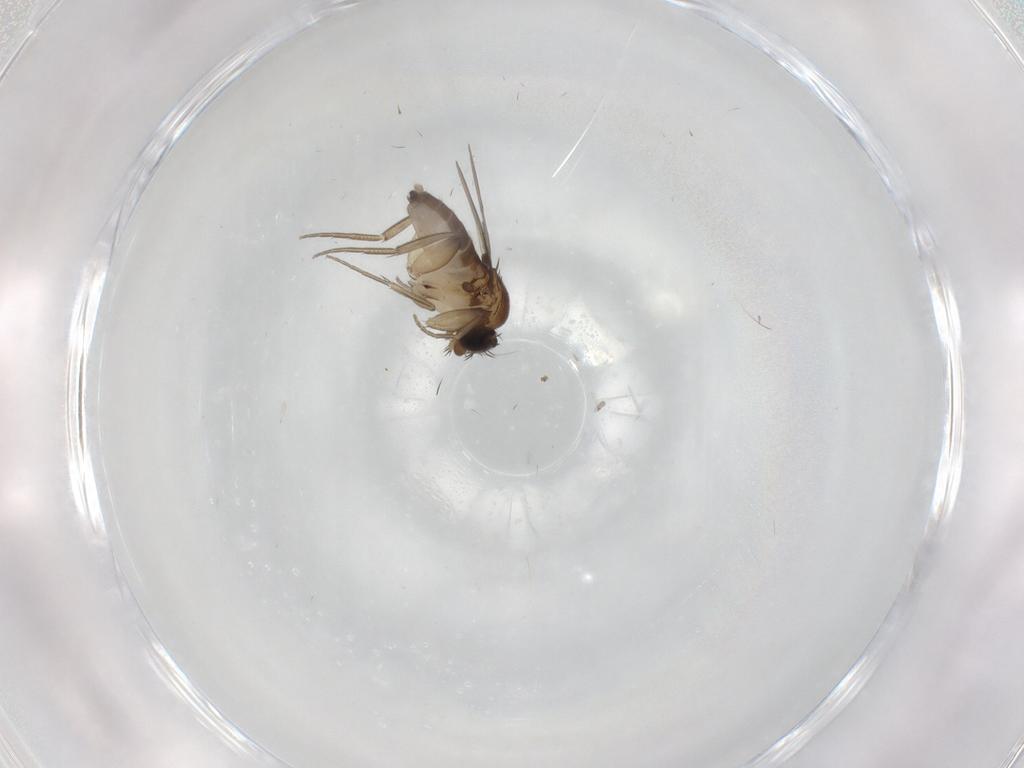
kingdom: Animalia
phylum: Arthropoda
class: Insecta
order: Diptera
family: Phoridae
